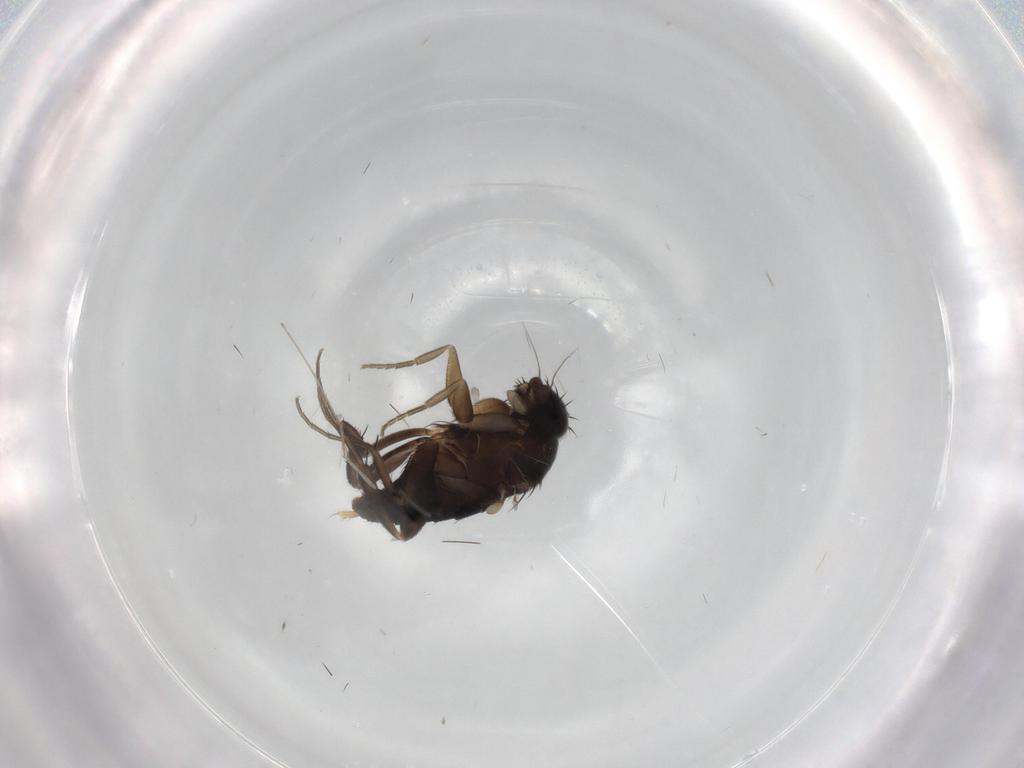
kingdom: Animalia
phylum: Arthropoda
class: Insecta
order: Diptera
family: Phoridae
